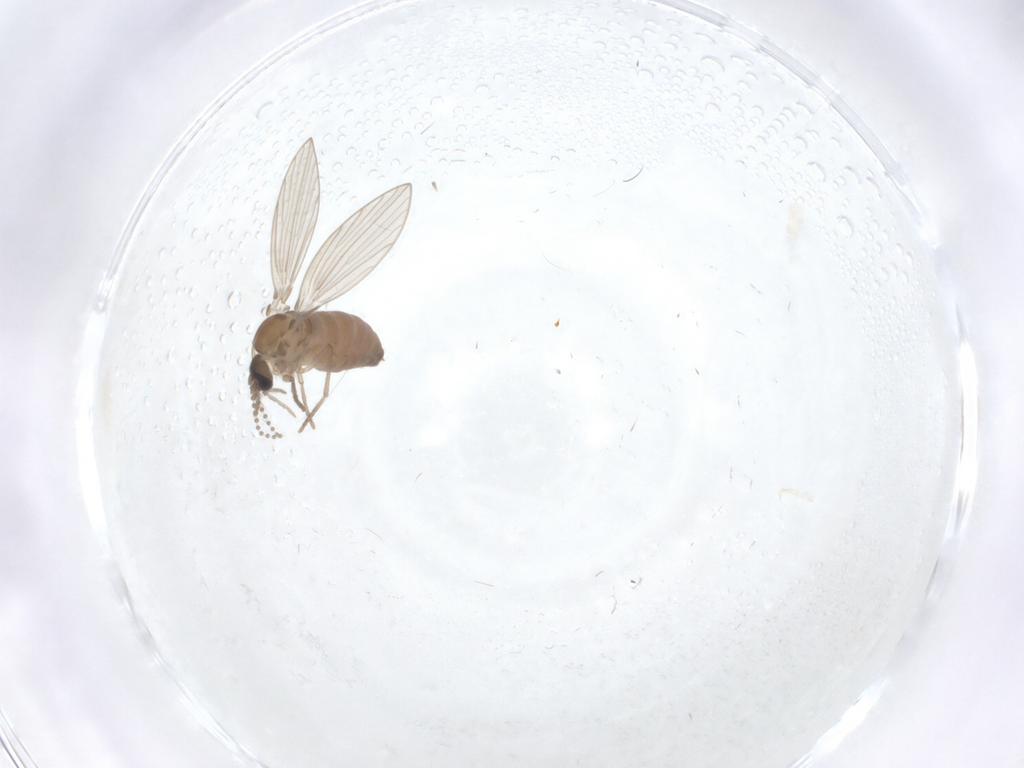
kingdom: Animalia
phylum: Arthropoda
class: Insecta
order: Diptera
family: Psychodidae
